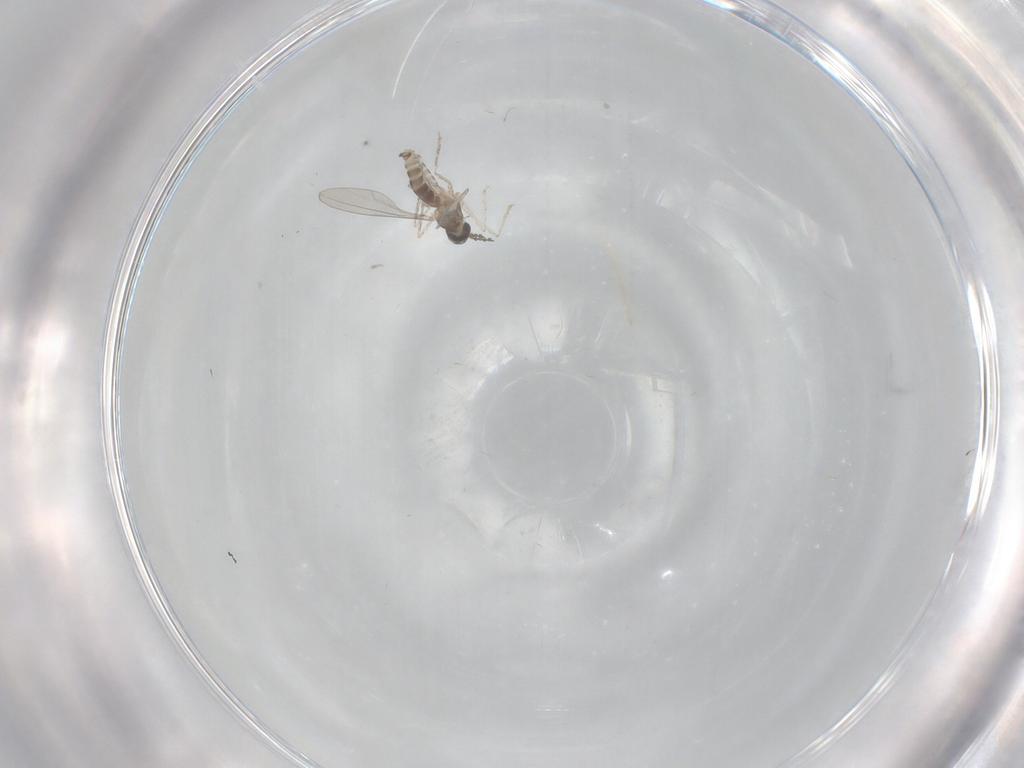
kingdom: Animalia
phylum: Arthropoda
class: Insecta
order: Diptera
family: Cecidomyiidae
